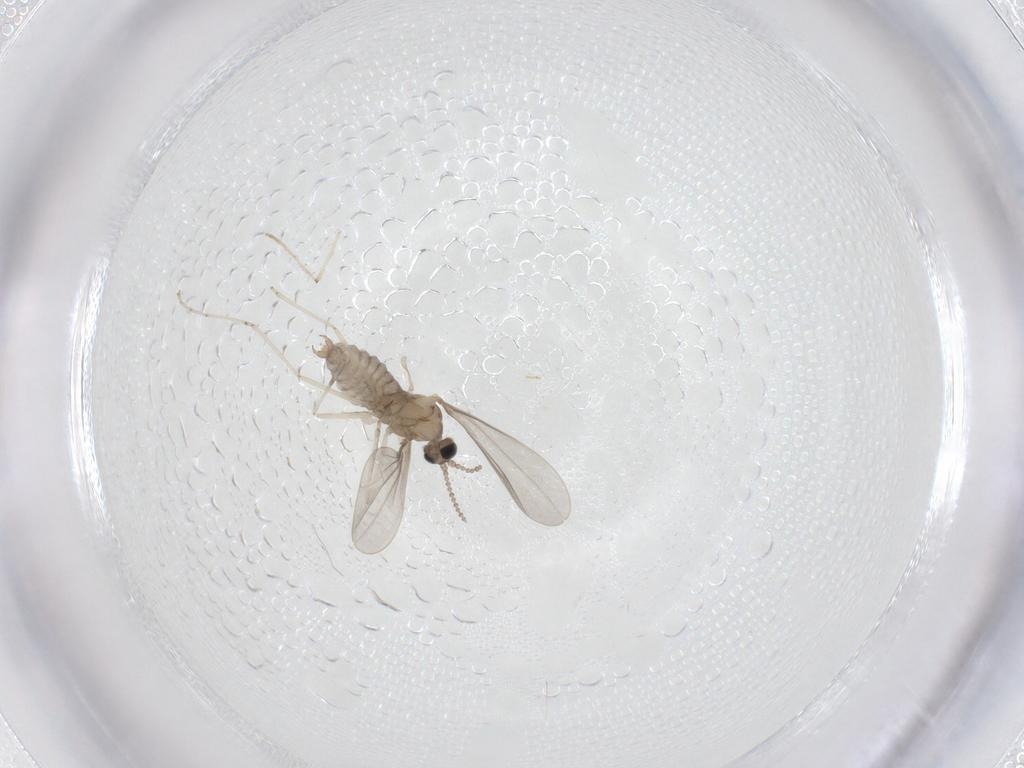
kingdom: Animalia
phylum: Arthropoda
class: Insecta
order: Diptera
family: Cecidomyiidae
